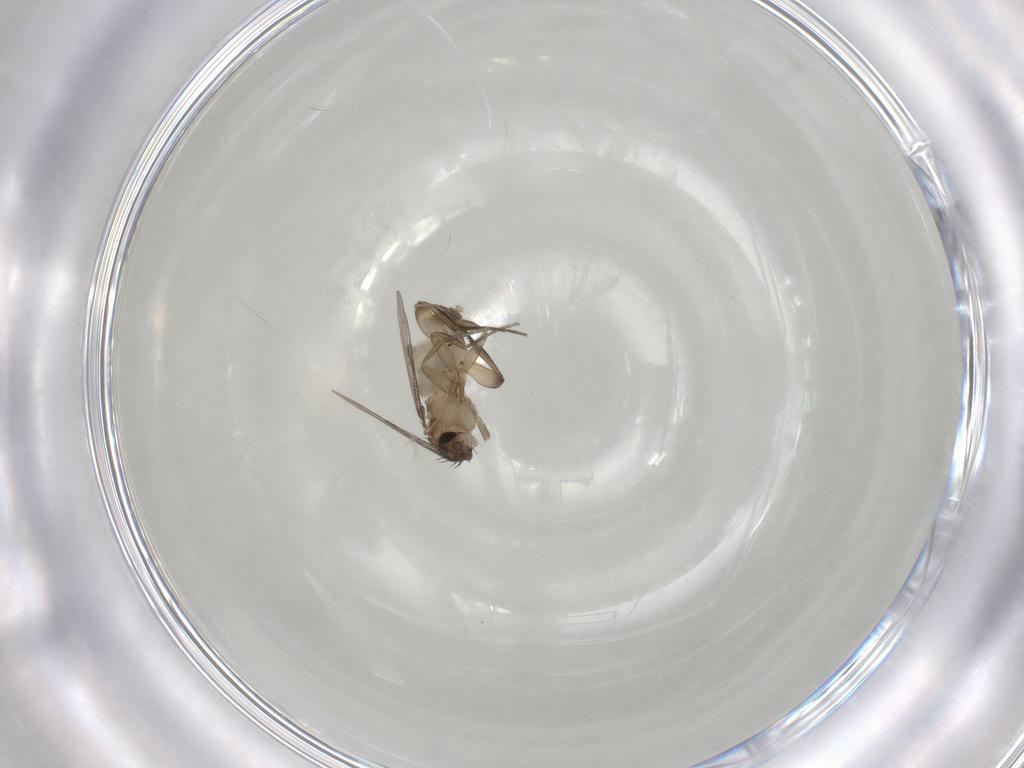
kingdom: Animalia
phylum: Arthropoda
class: Insecta
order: Diptera
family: Phoridae
